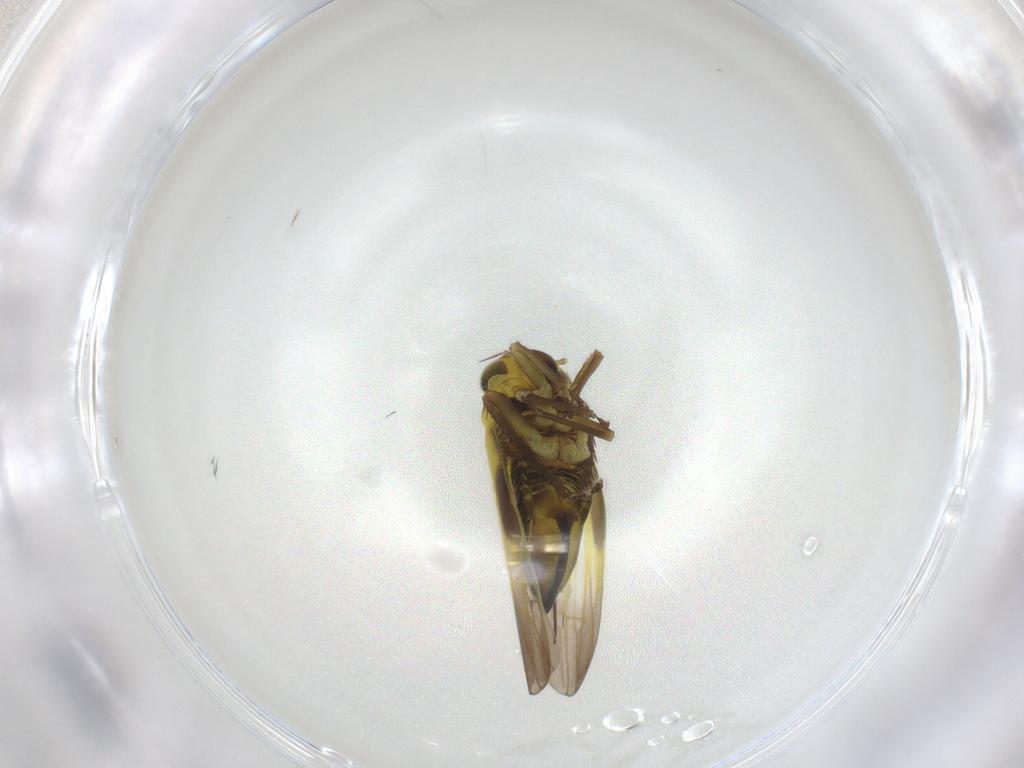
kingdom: Animalia
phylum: Arthropoda
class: Insecta
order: Hemiptera
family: Cicadellidae
